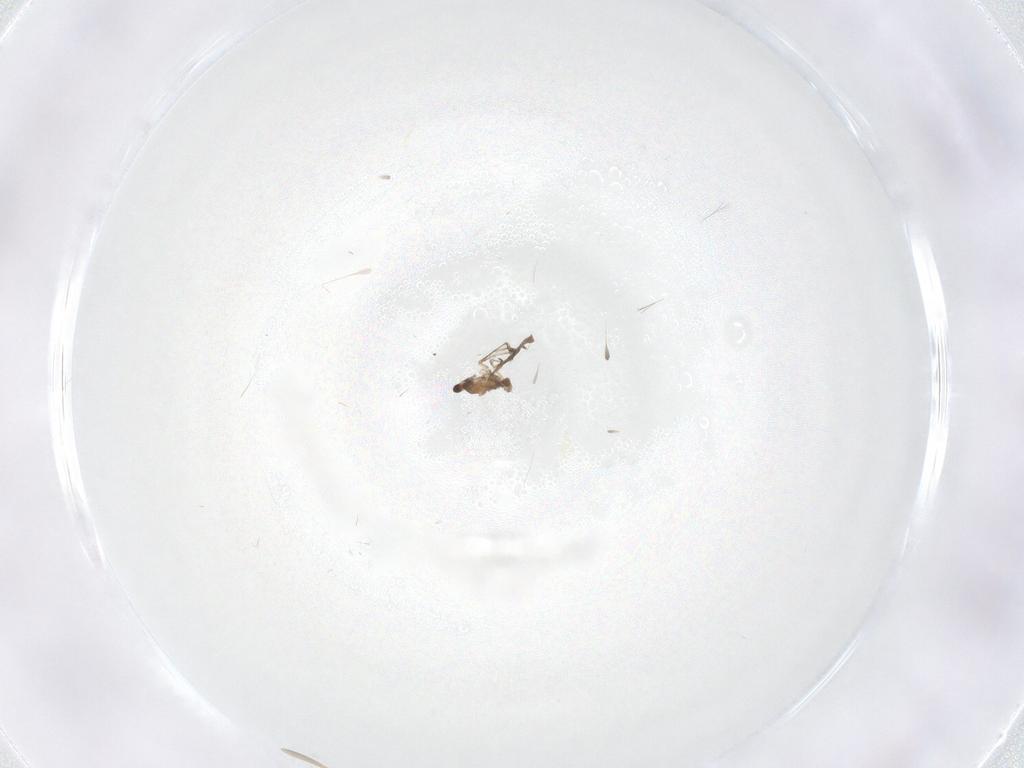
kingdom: Animalia
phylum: Arthropoda
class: Insecta
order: Diptera
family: Cecidomyiidae
